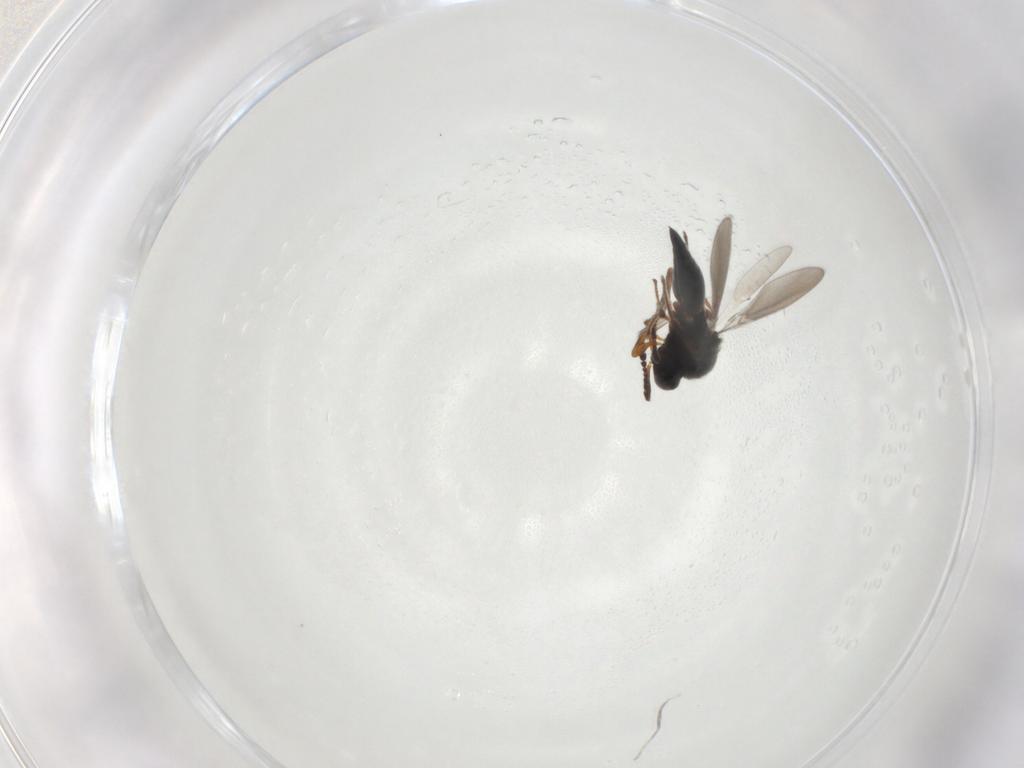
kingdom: Animalia
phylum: Arthropoda
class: Insecta
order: Hymenoptera
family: Platygastridae
